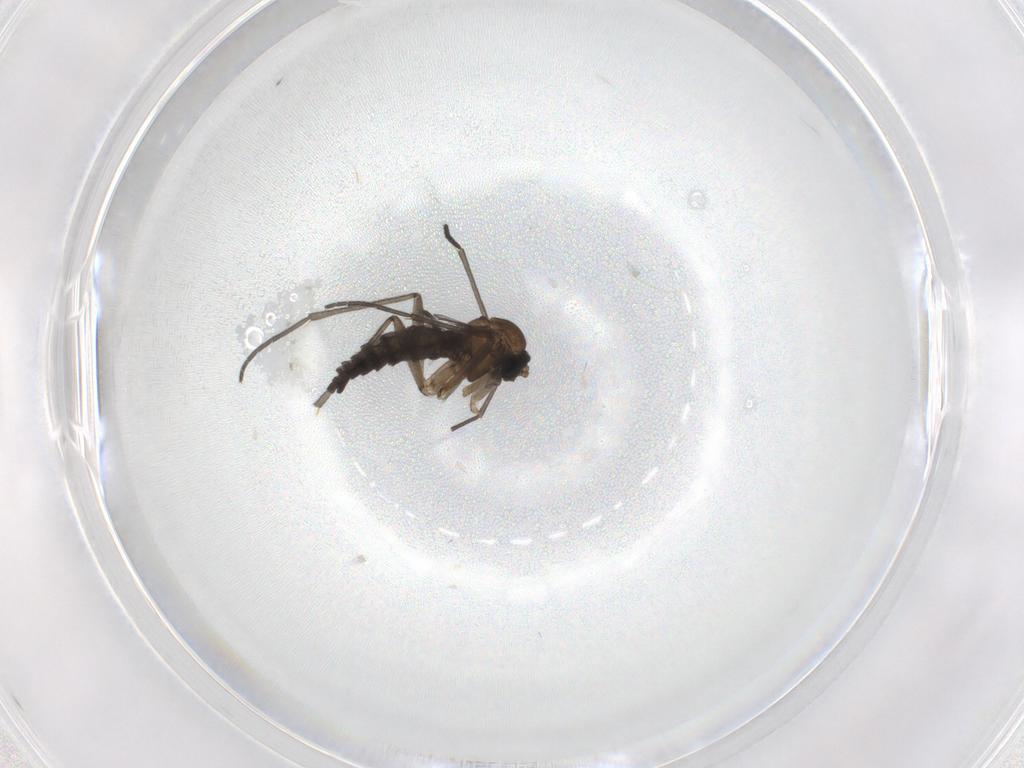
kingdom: Animalia
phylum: Arthropoda
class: Insecta
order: Diptera
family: Sciaridae
